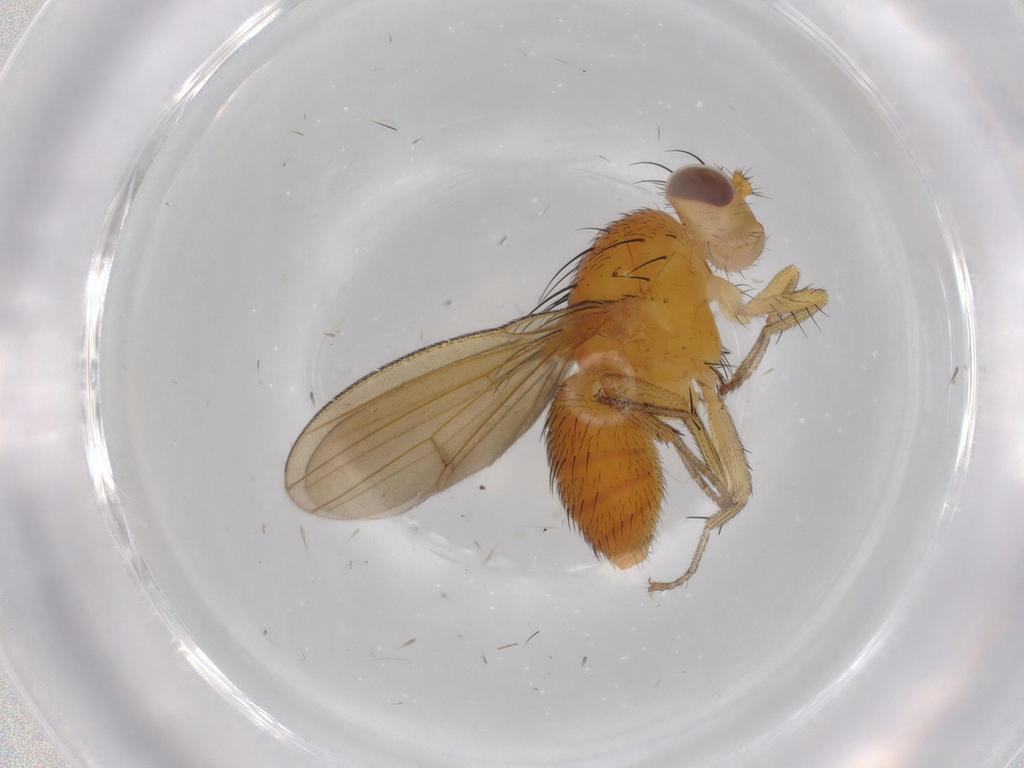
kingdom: Animalia
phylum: Arthropoda
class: Insecta
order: Diptera
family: Lauxaniidae
